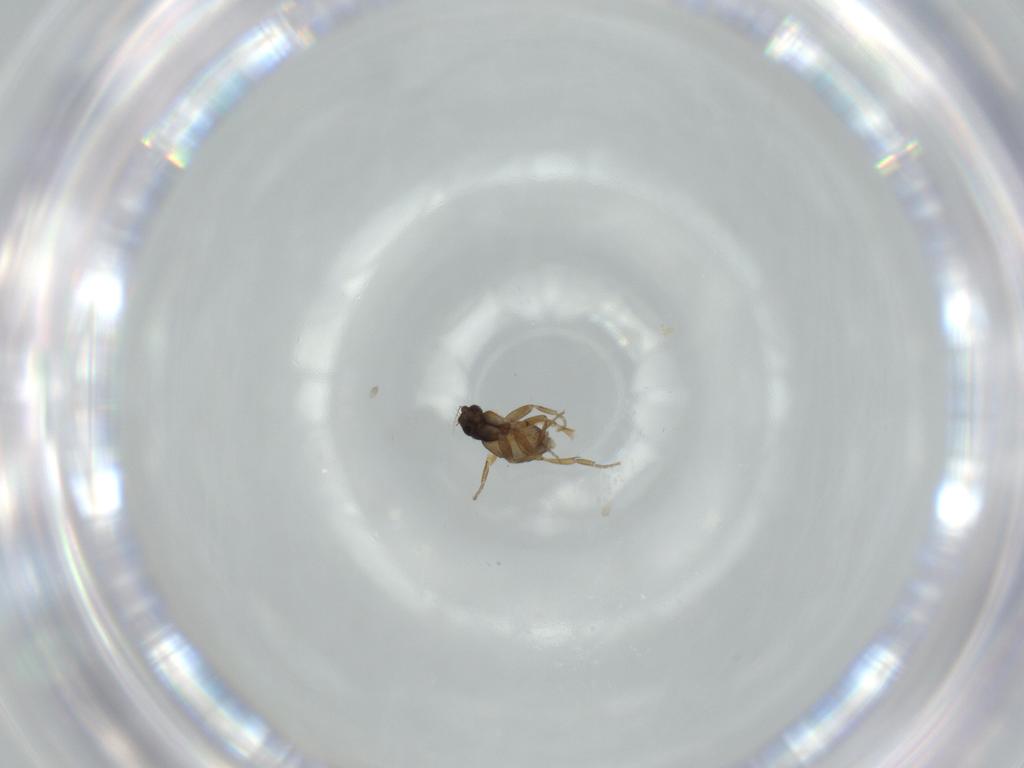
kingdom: Animalia
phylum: Arthropoda
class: Insecta
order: Diptera
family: Phoridae
